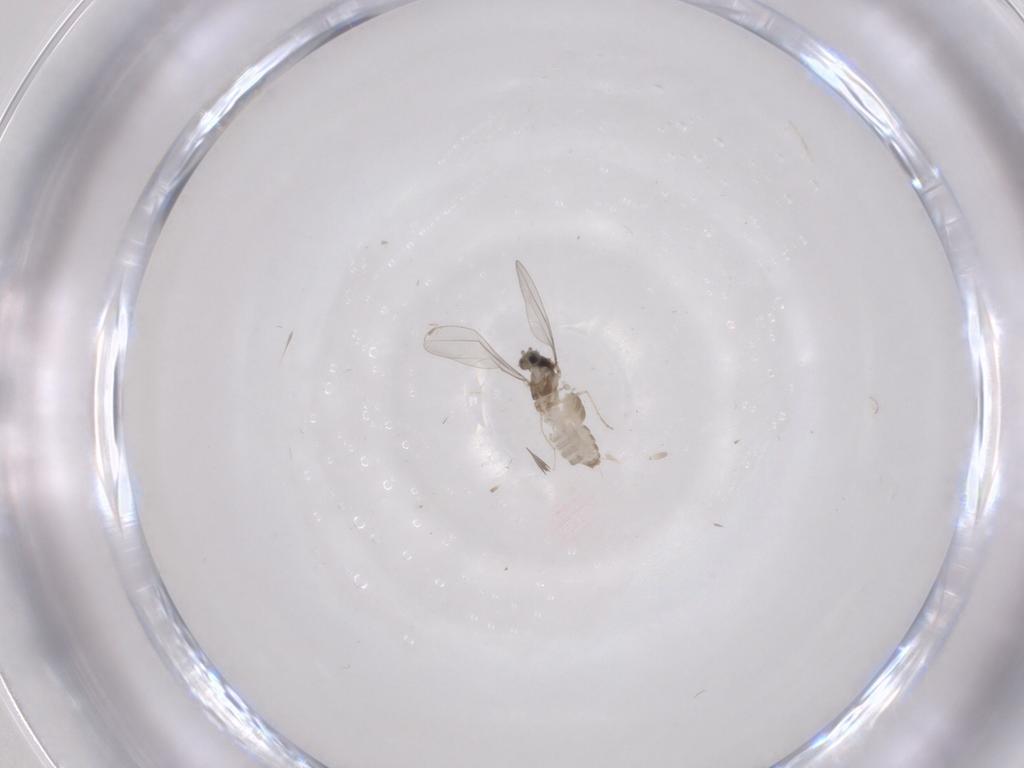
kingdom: Animalia
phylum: Arthropoda
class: Insecta
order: Diptera
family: Cecidomyiidae
